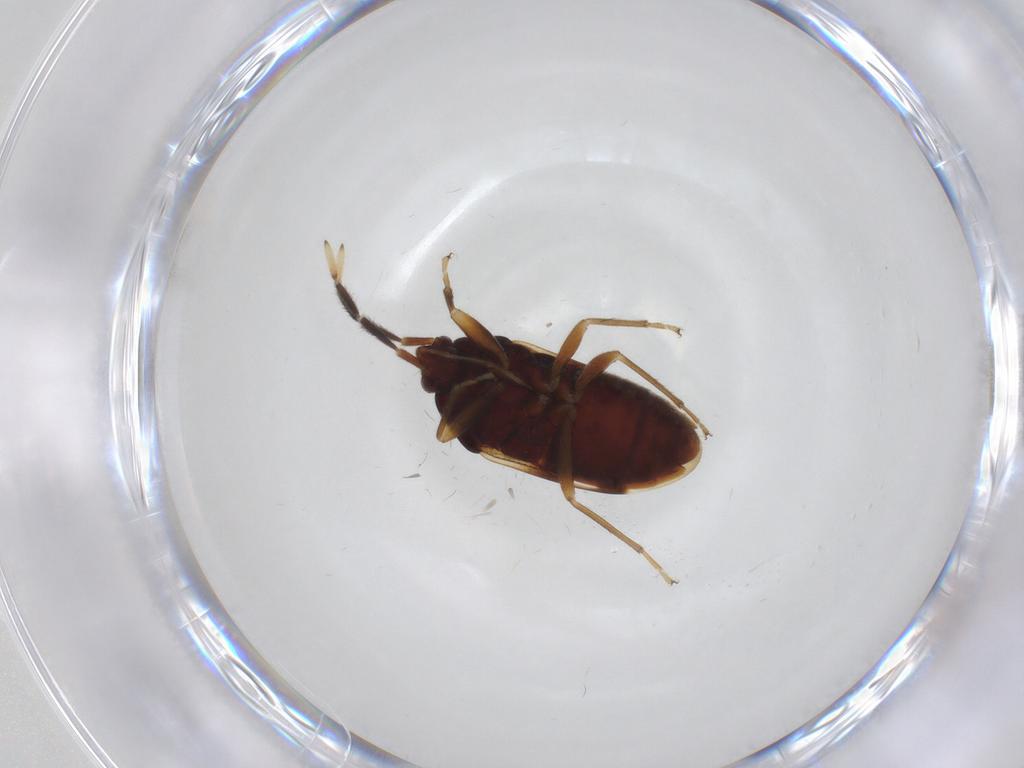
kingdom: Animalia
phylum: Arthropoda
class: Insecta
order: Hemiptera
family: Rhyparochromidae
